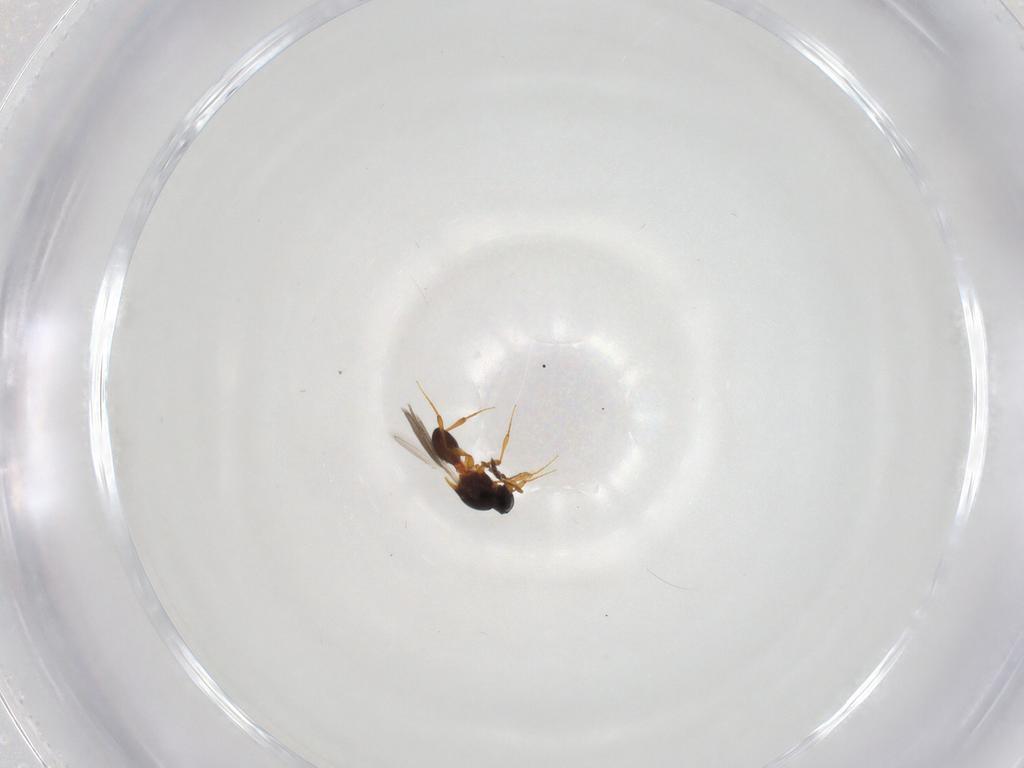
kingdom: Animalia
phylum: Arthropoda
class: Insecta
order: Hymenoptera
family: Platygastridae
